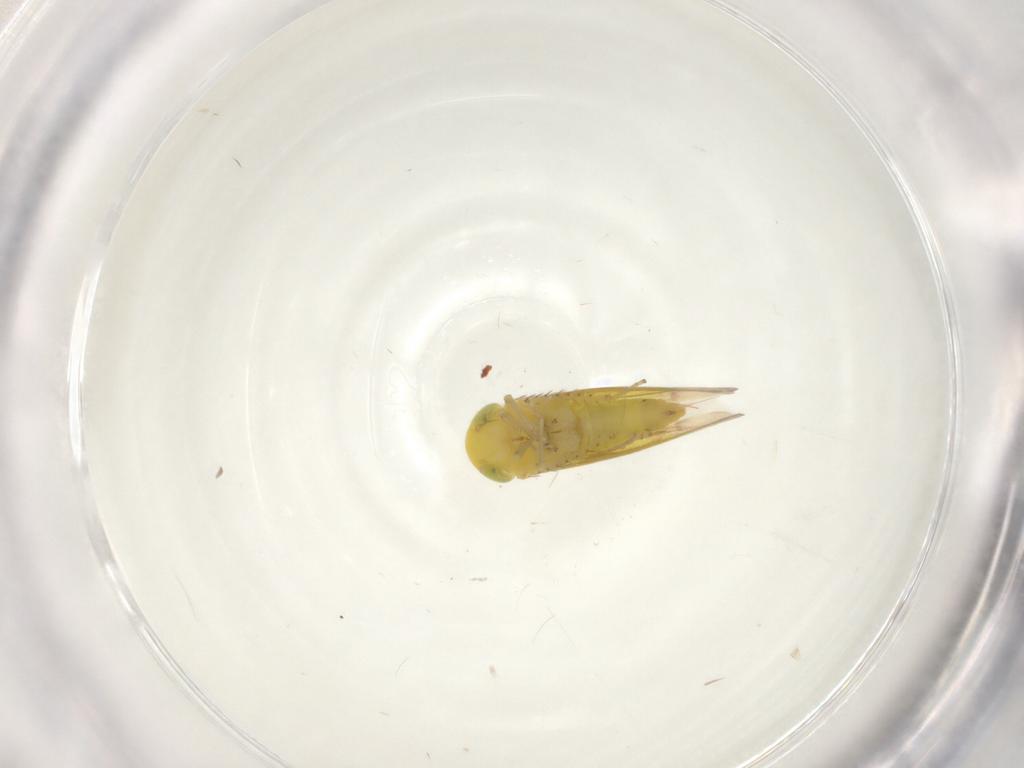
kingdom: Animalia
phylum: Arthropoda
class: Insecta
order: Hemiptera
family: Cicadellidae
